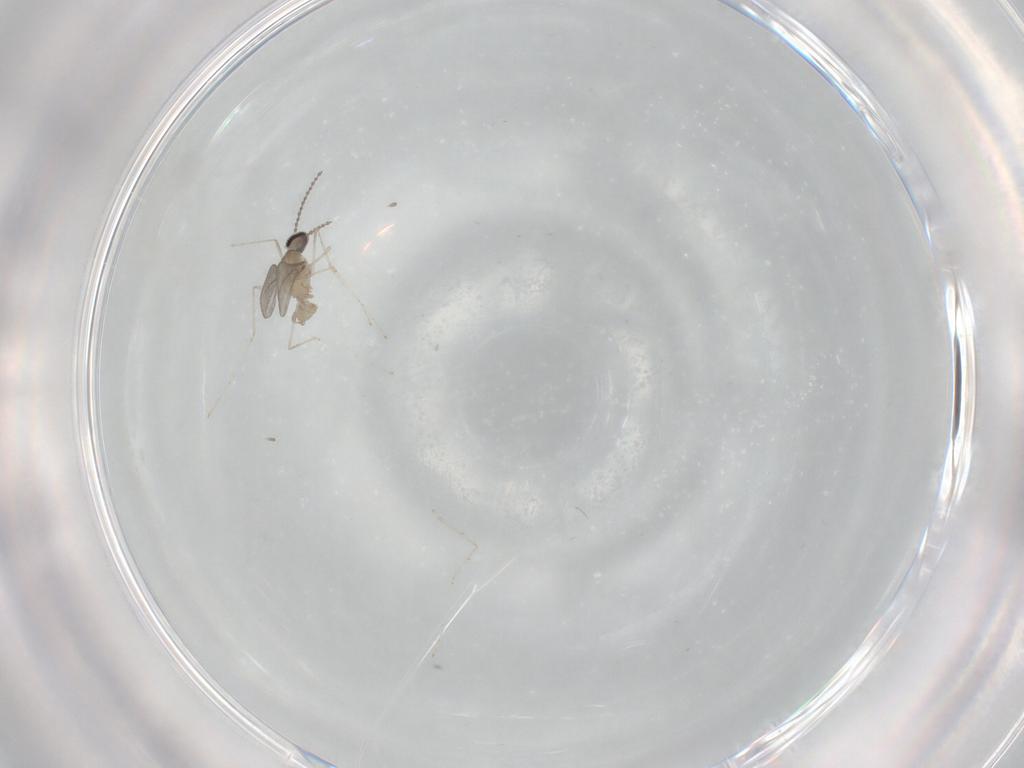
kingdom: Animalia
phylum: Arthropoda
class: Insecta
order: Diptera
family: Cecidomyiidae
